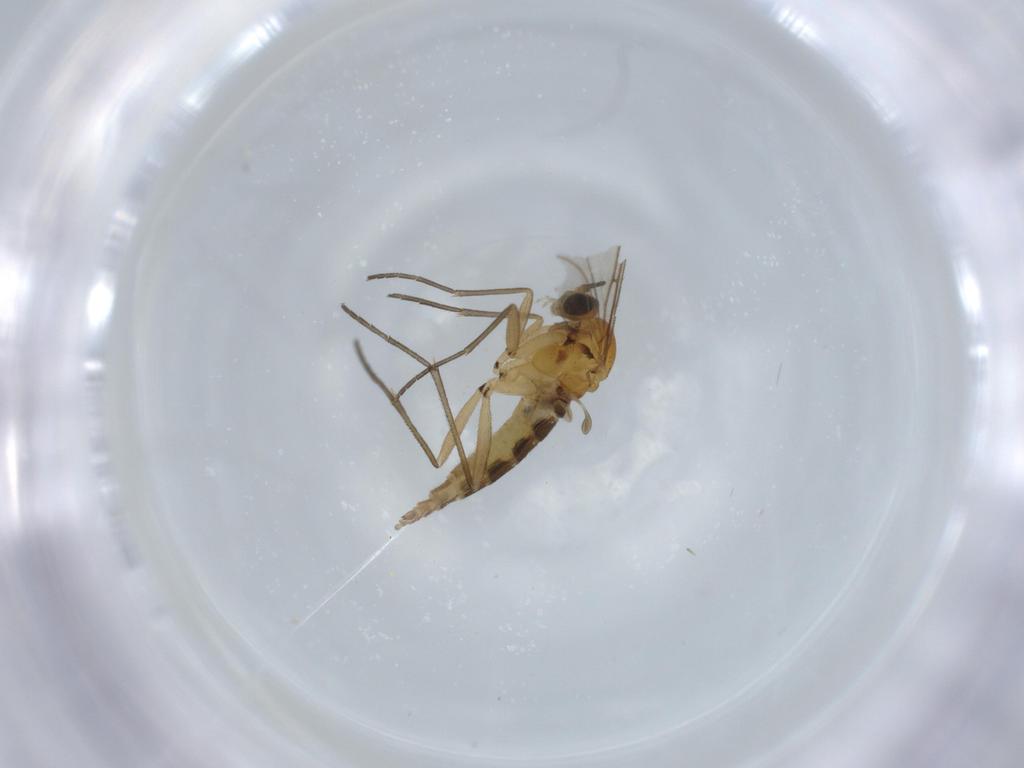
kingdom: Animalia
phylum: Arthropoda
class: Insecta
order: Diptera
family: Sciaridae
